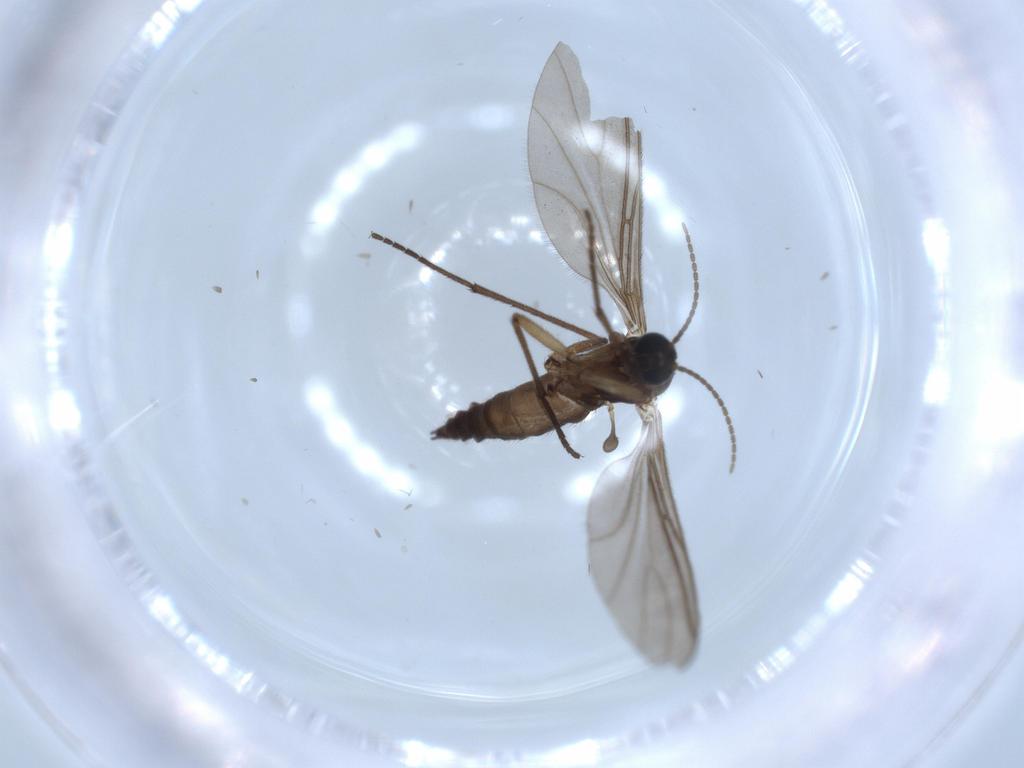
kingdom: Animalia
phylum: Arthropoda
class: Insecta
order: Diptera
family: Sciaridae
